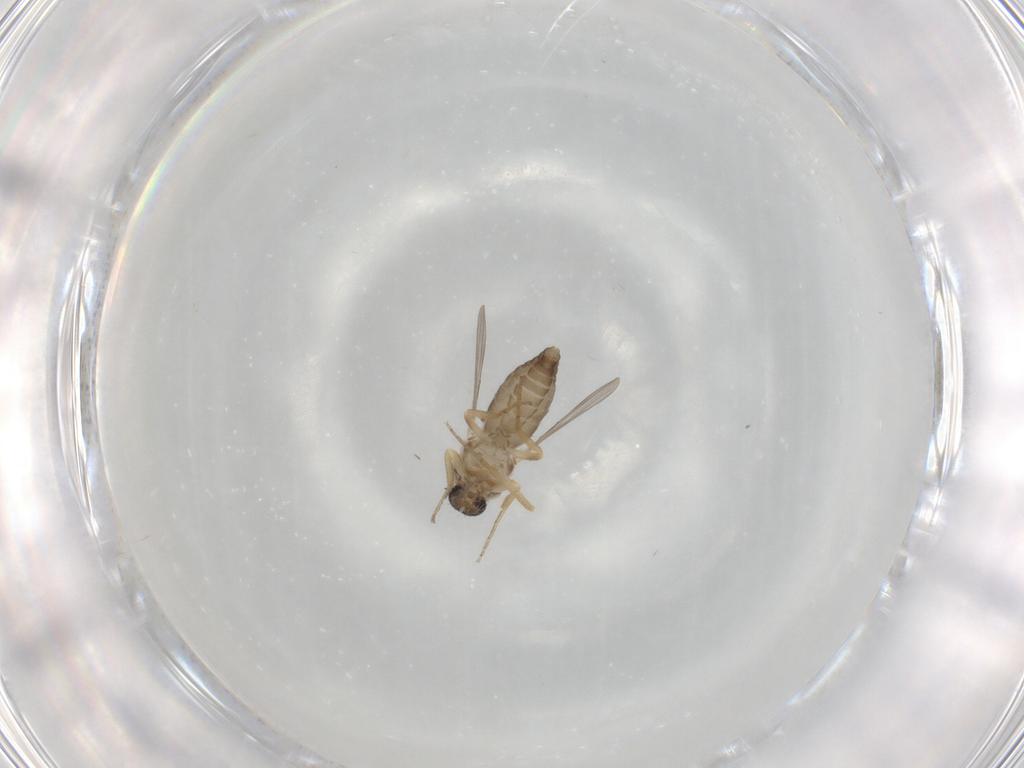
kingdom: Animalia
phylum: Arthropoda
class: Insecta
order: Diptera
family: Ceratopogonidae
